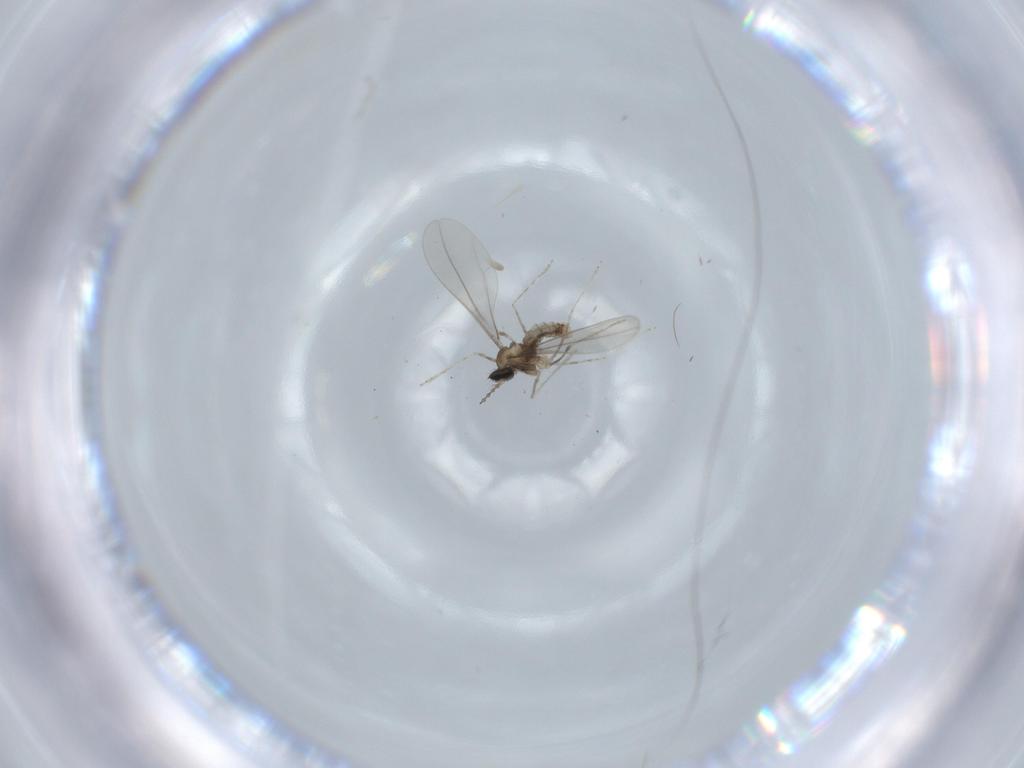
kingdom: Animalia
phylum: Arthropoda
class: Insecta
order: Diptera
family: Cecidomyiidae
